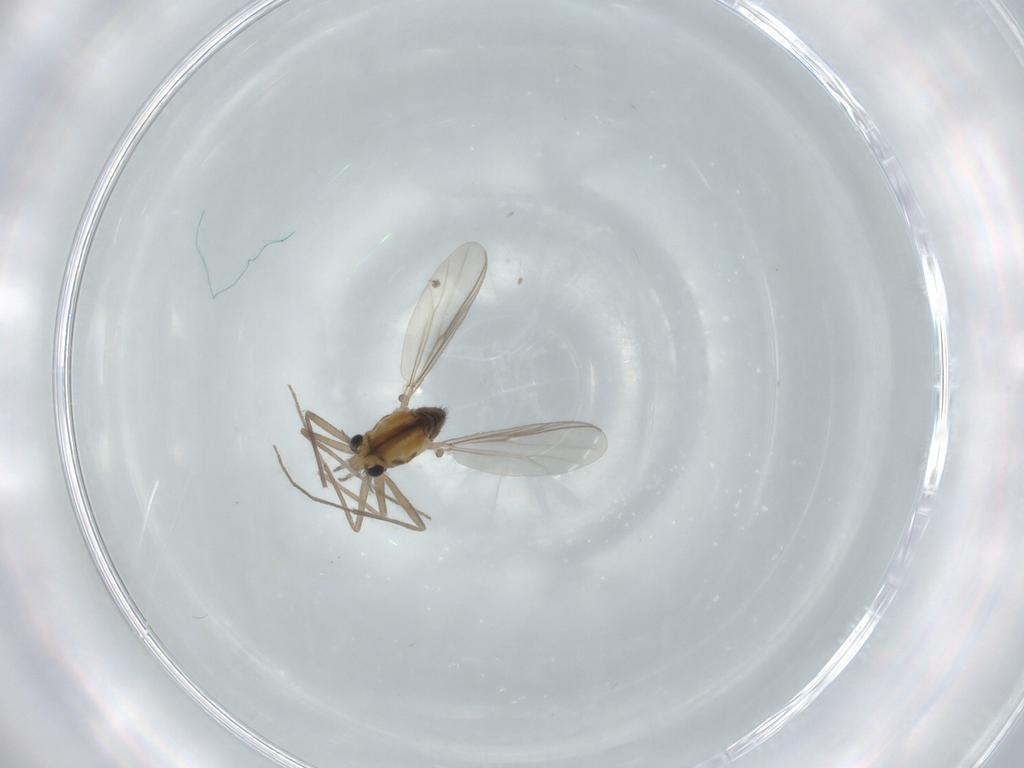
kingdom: Animalia
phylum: Arthropoda
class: Insecta
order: Diptera
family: Chironomidae
